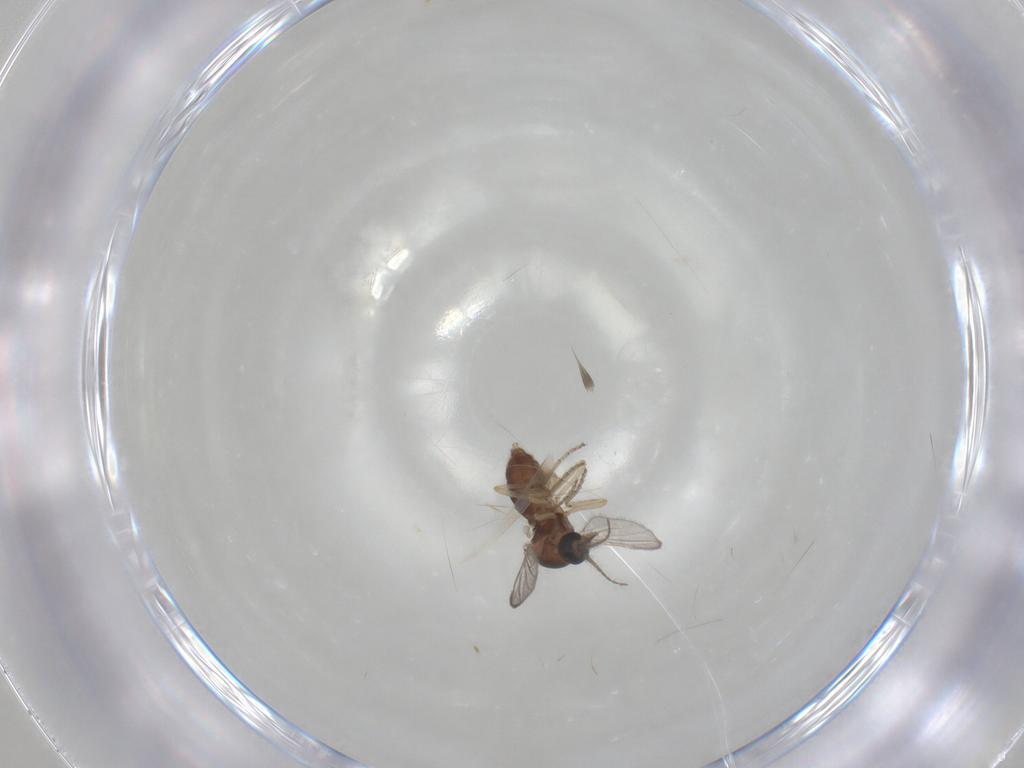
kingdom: Animalia
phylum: Arthropoda
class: Insecta
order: Diptera
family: Ceratopogonidae
